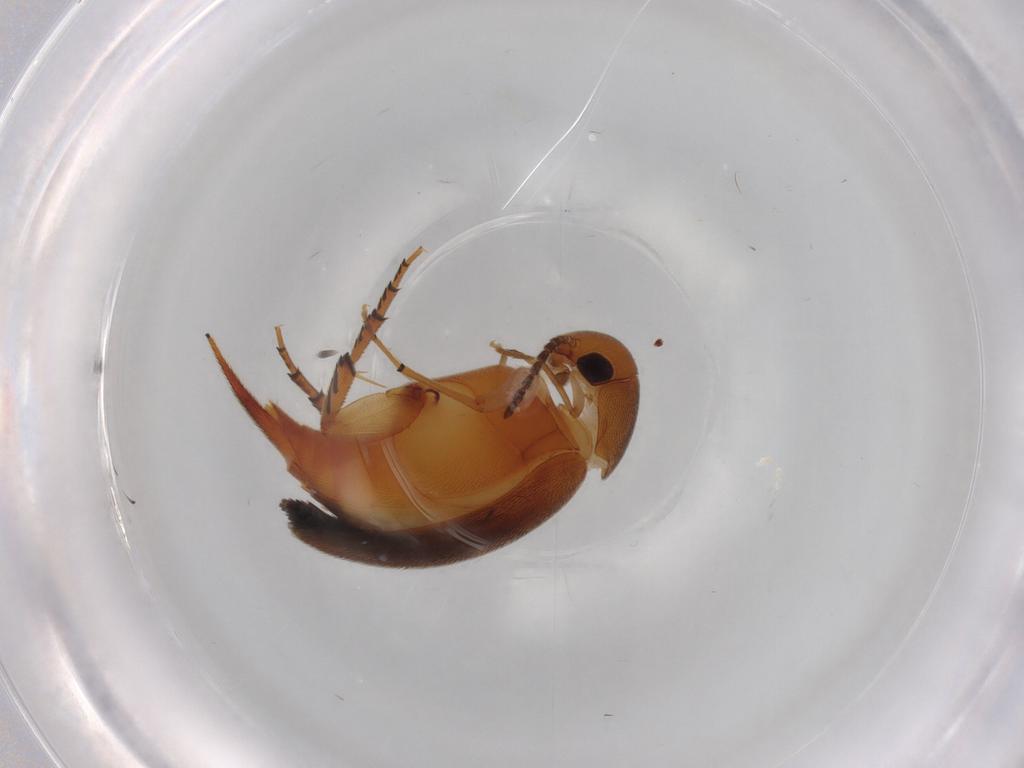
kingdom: Animalia
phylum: Arthropoda
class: Insecta
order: Coleoptera
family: Mordellidae
